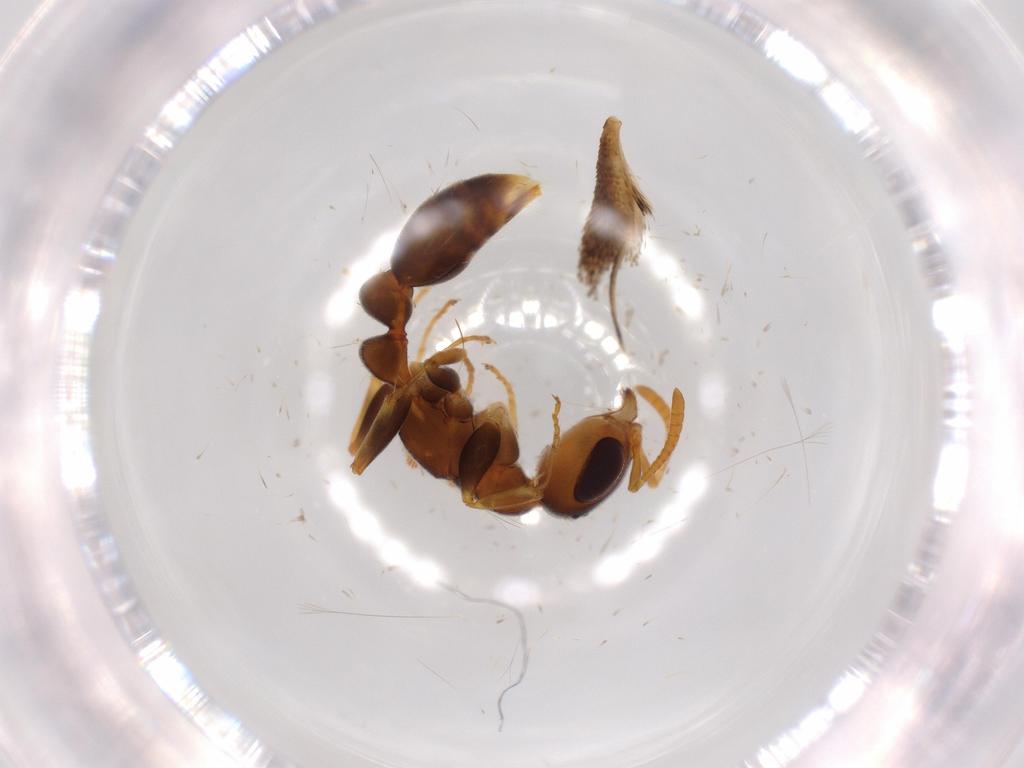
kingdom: Animalia
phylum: Arthropoda
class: Insecta
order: Hymenoptera
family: Formicidae
